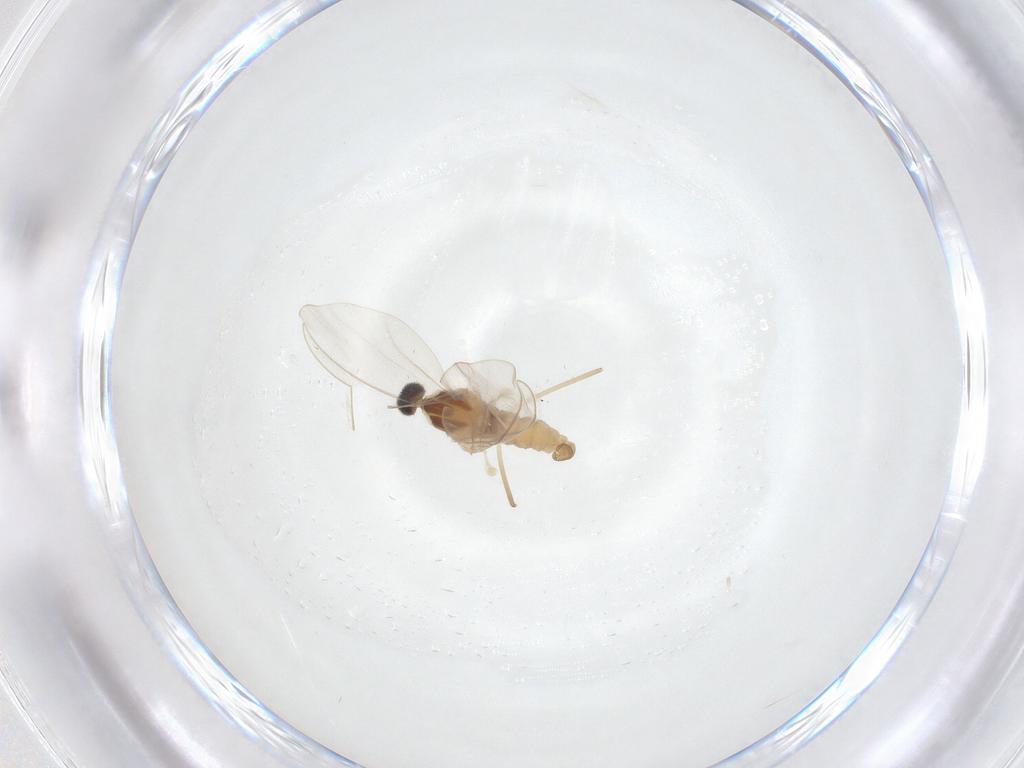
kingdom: Animalia
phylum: Arthropoda
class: Insecta
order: Diptera
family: Cecidomyiidae
